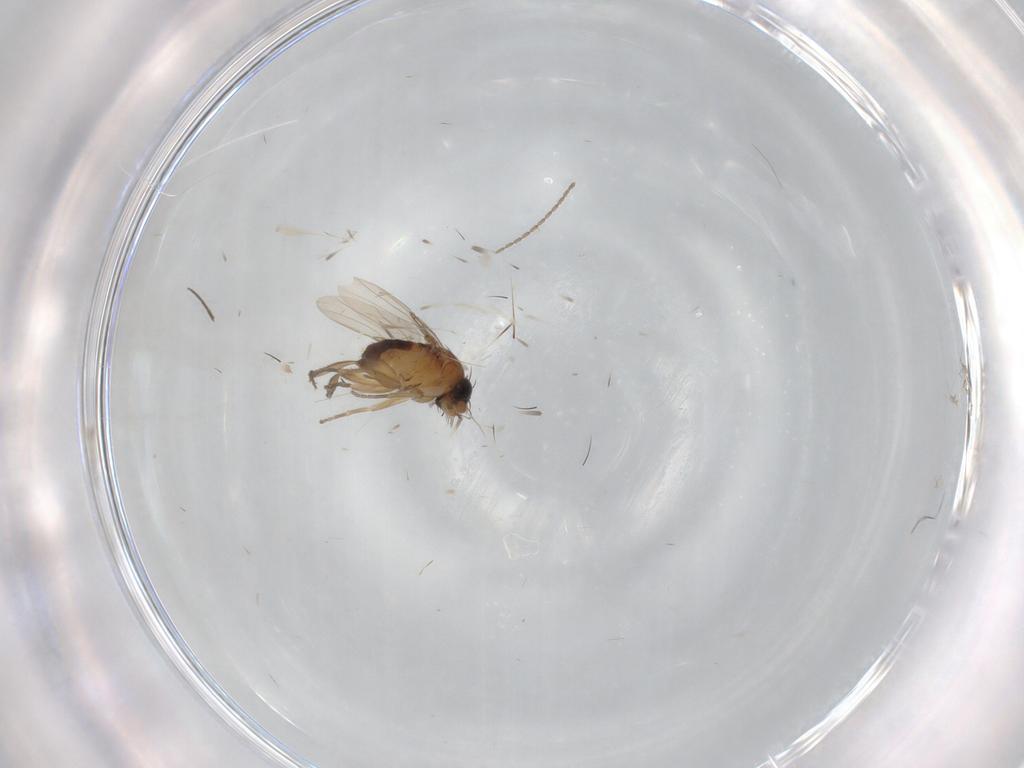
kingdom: Animalia
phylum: Arthropoda
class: Insecta
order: Diptera
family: Cecidomyiidae
